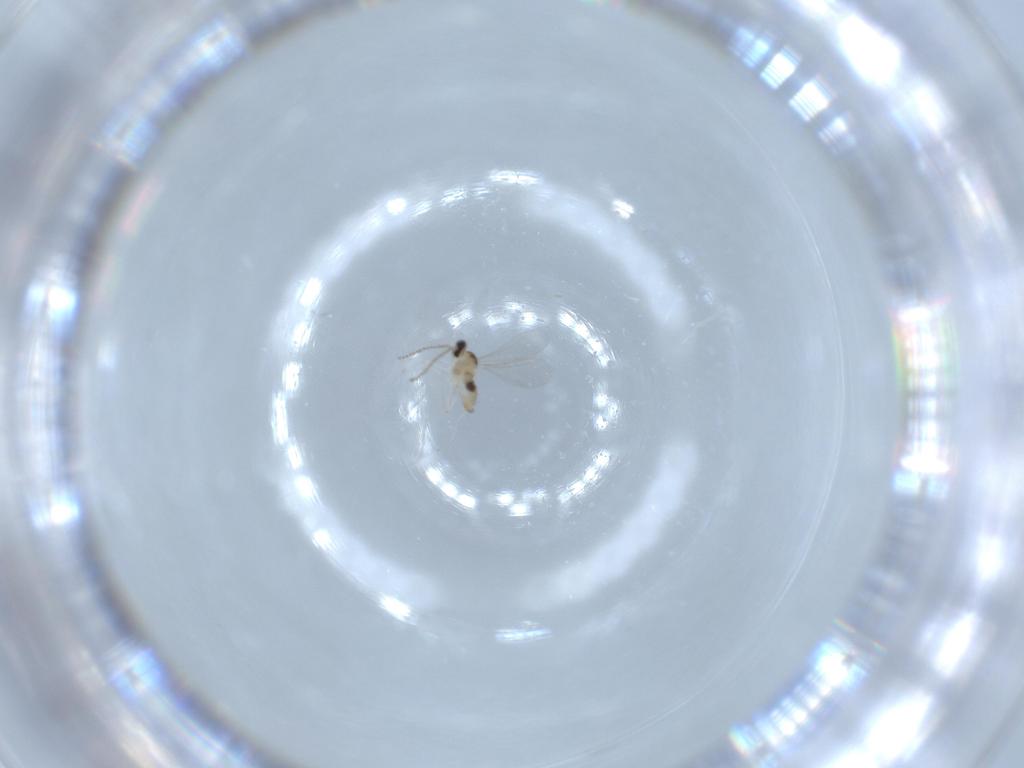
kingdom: Animalia
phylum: Arthropoda
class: Insecta
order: Diptera
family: Cecidomyiidae
